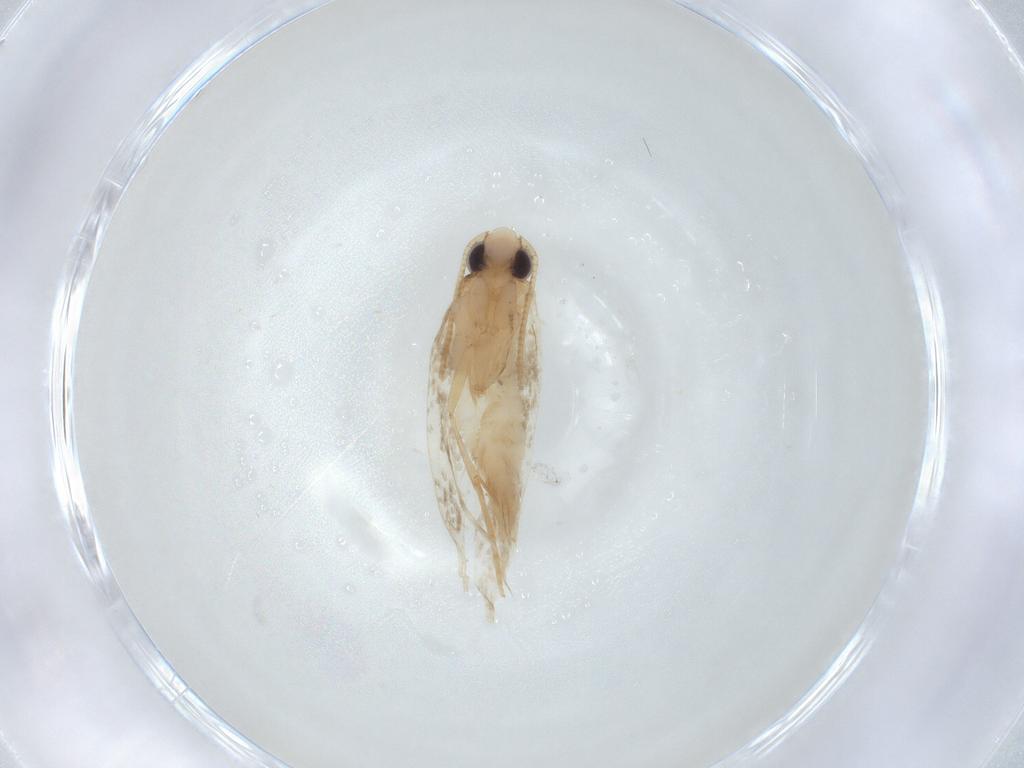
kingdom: Animalia
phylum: Arthropoda
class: Insecta
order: Lepidoptera
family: Tineidae
